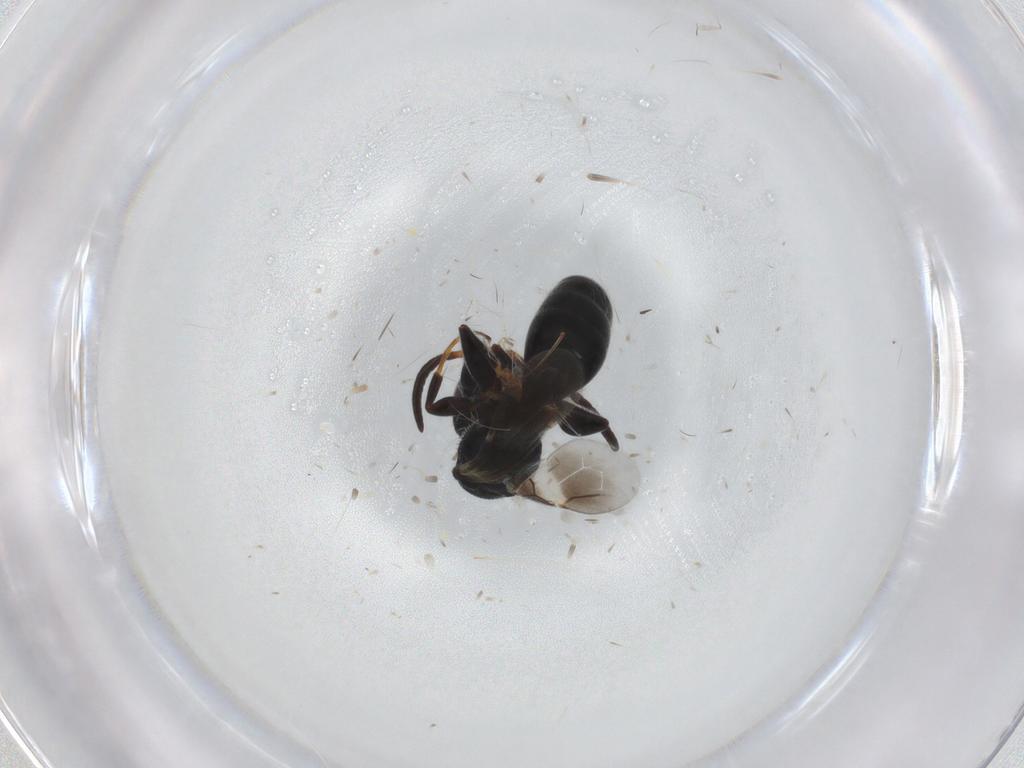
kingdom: Animalia
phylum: Arthropoda
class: Insecta
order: Hymenoptera
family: Bethylidae
